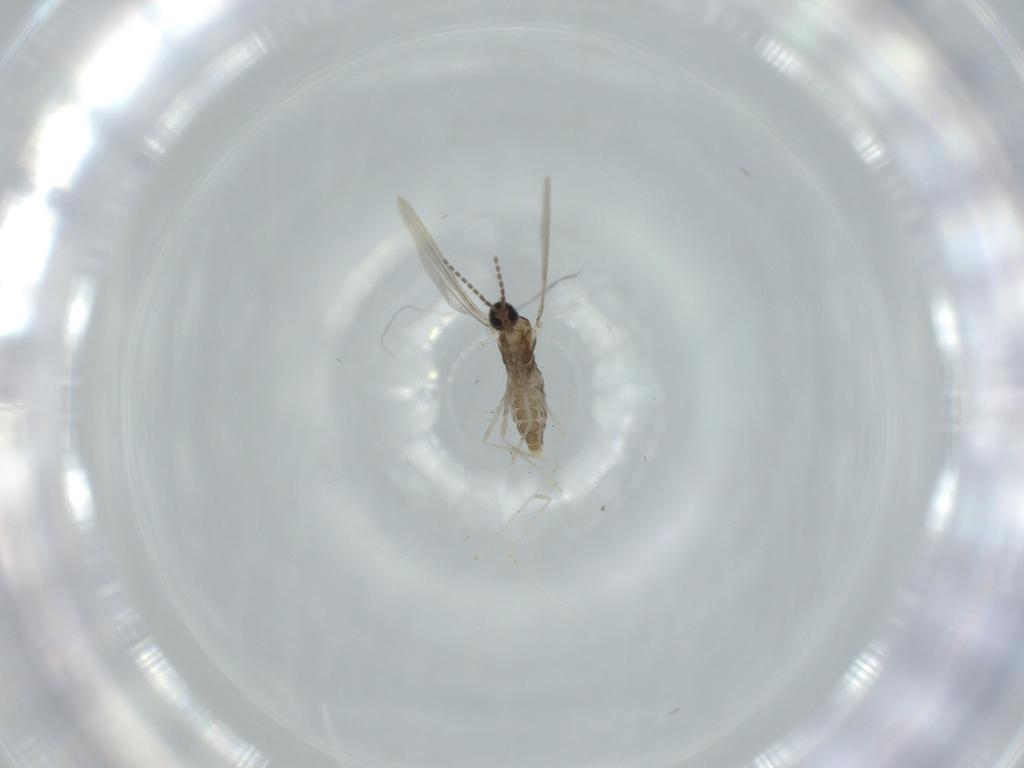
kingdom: Animalia
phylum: Arthropoda
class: Insecta
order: Diptera
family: Cecidomyiidae
